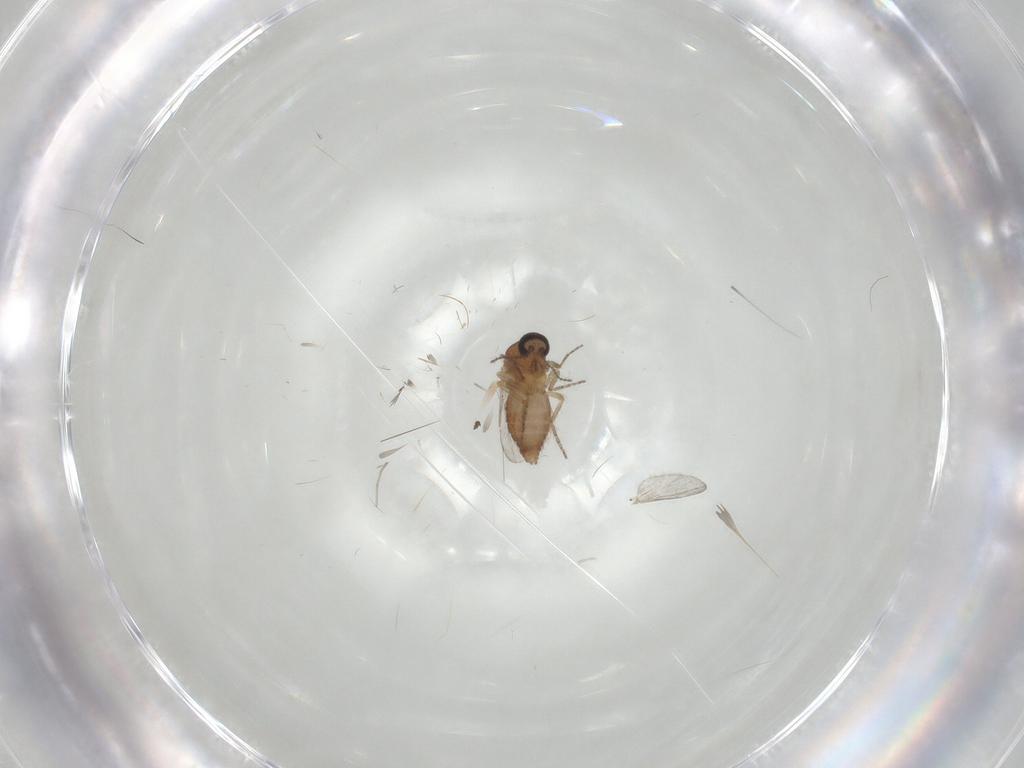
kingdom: Animalia
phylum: Arthropoda
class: Insecta
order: Diptera
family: Ceratopogonidae
